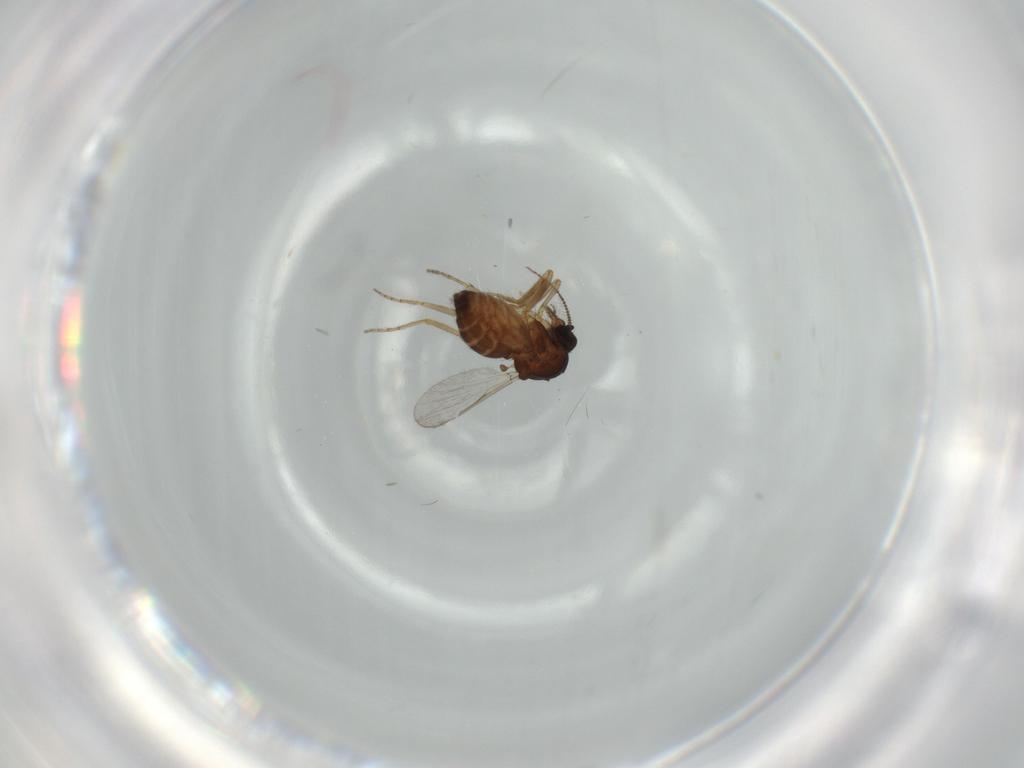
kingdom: Animalia
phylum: Arthropoda
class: Insecta
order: Diptera
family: Ceratopogonidae
